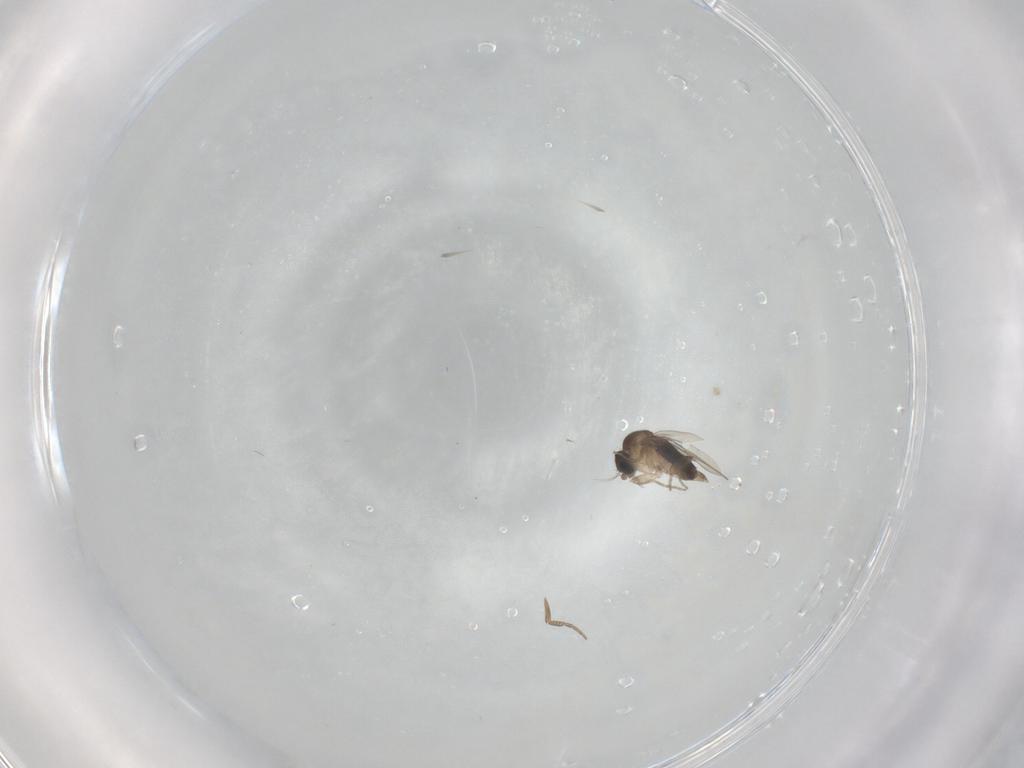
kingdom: Animalia
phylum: Arthropoda
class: Insecta
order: Diptera
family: Phoridae
